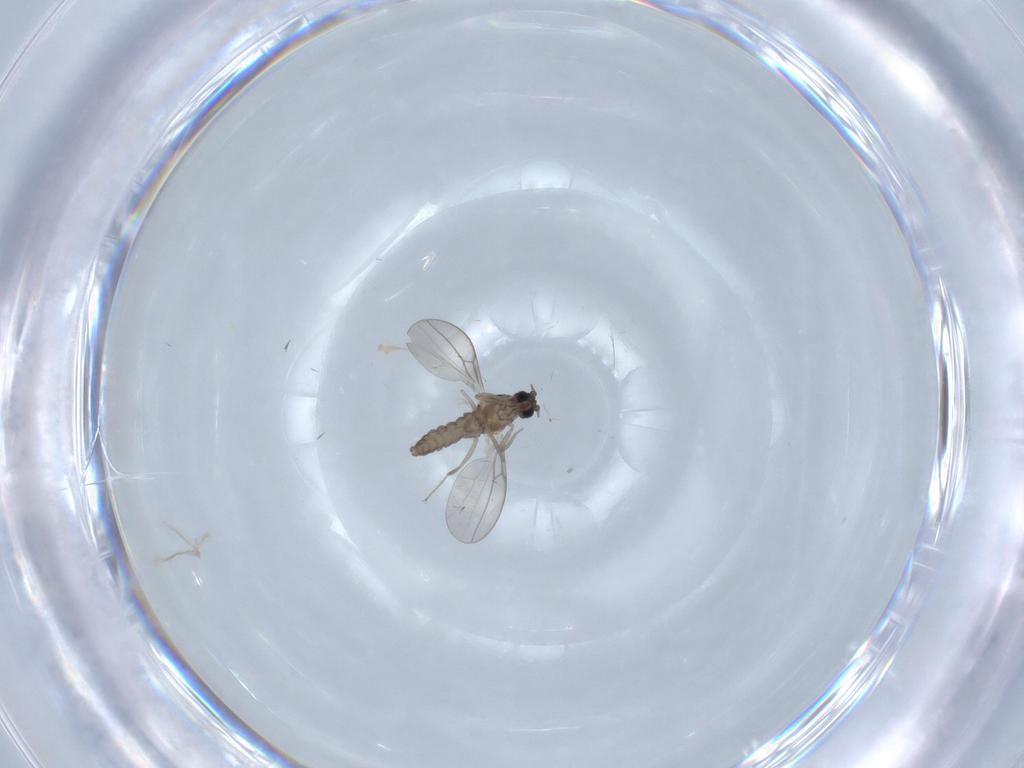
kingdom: Animalia
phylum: Arthropoda
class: Insecta
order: Diptera
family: Cecidomyiidae
